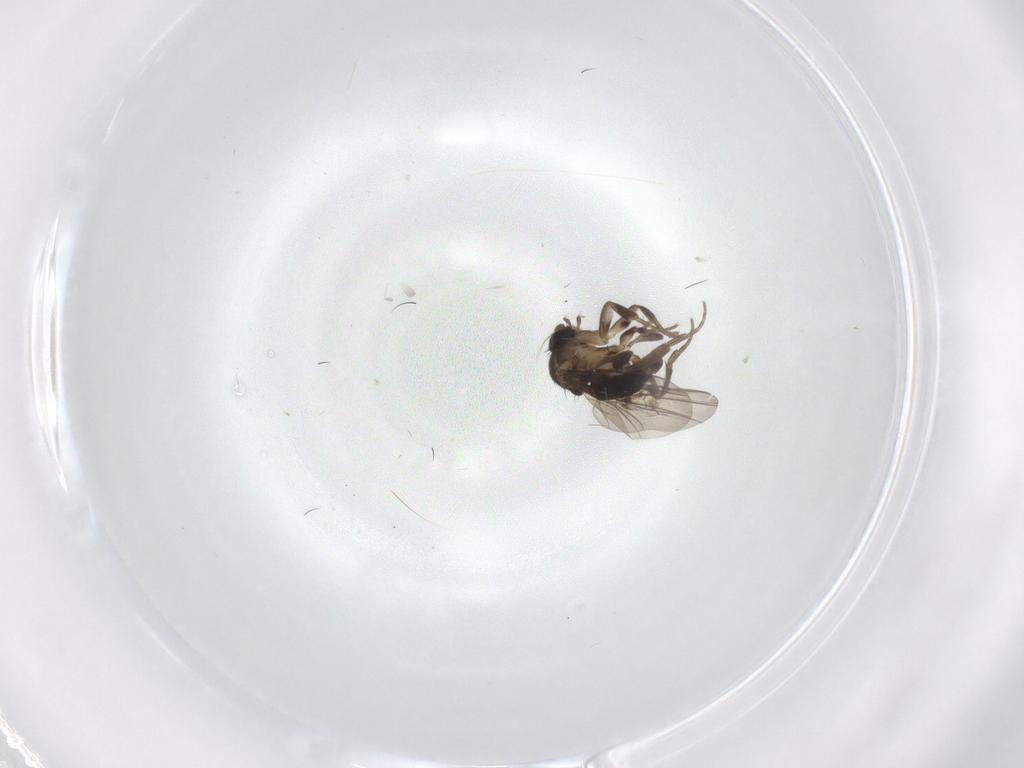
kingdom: Animalia
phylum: Arthropoda
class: Insecta
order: Diptera
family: Phoridae
